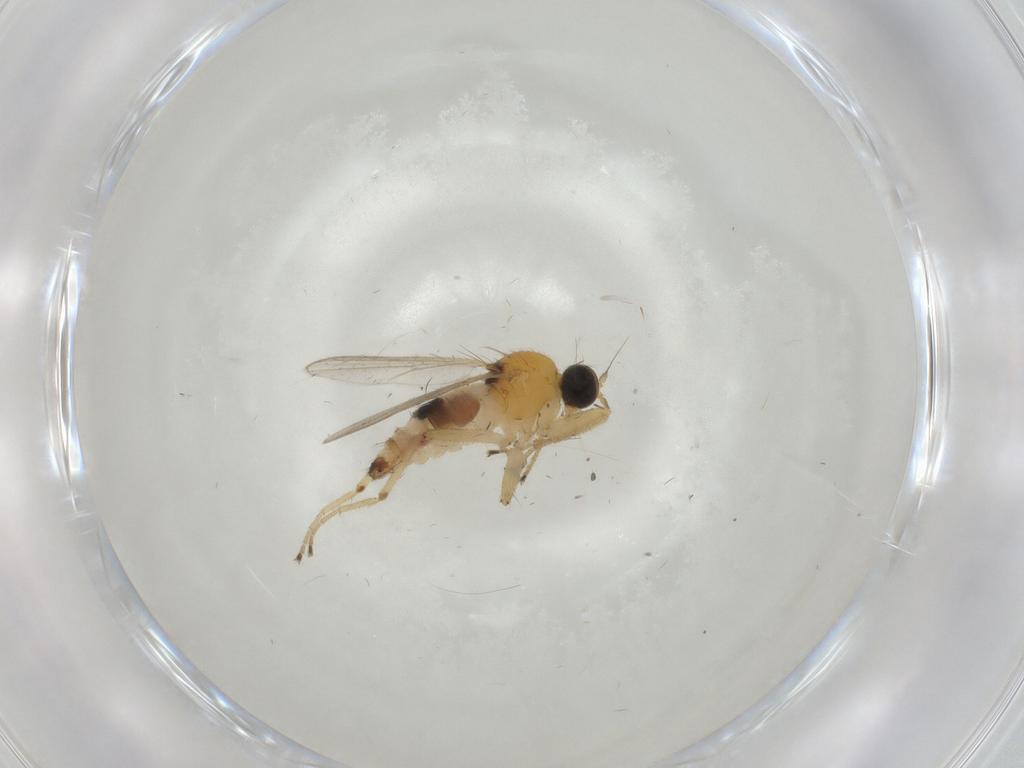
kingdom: Animalia
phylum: Arthropoda
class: Insecta
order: Diptera
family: Hybotidae
